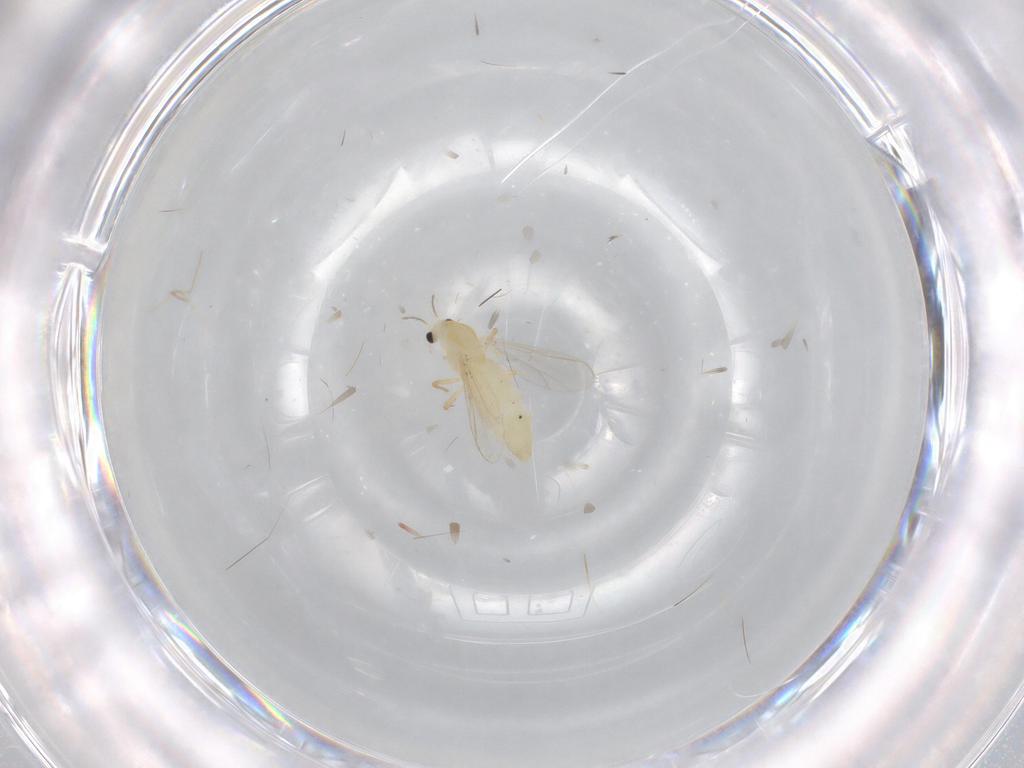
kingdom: Animalia
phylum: Arthropoda
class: Insecta
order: Diptera
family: Chironomidae
